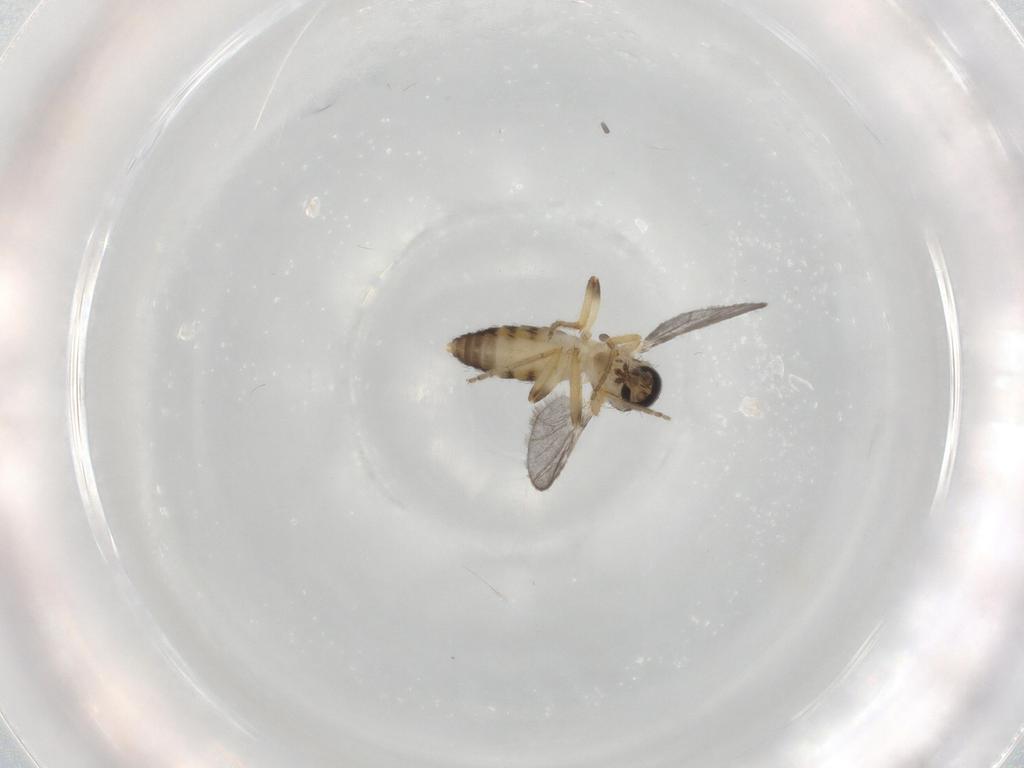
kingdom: Animalia
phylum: Arthropoda
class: Insecta
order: Diptera
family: Ceratopogonidae
